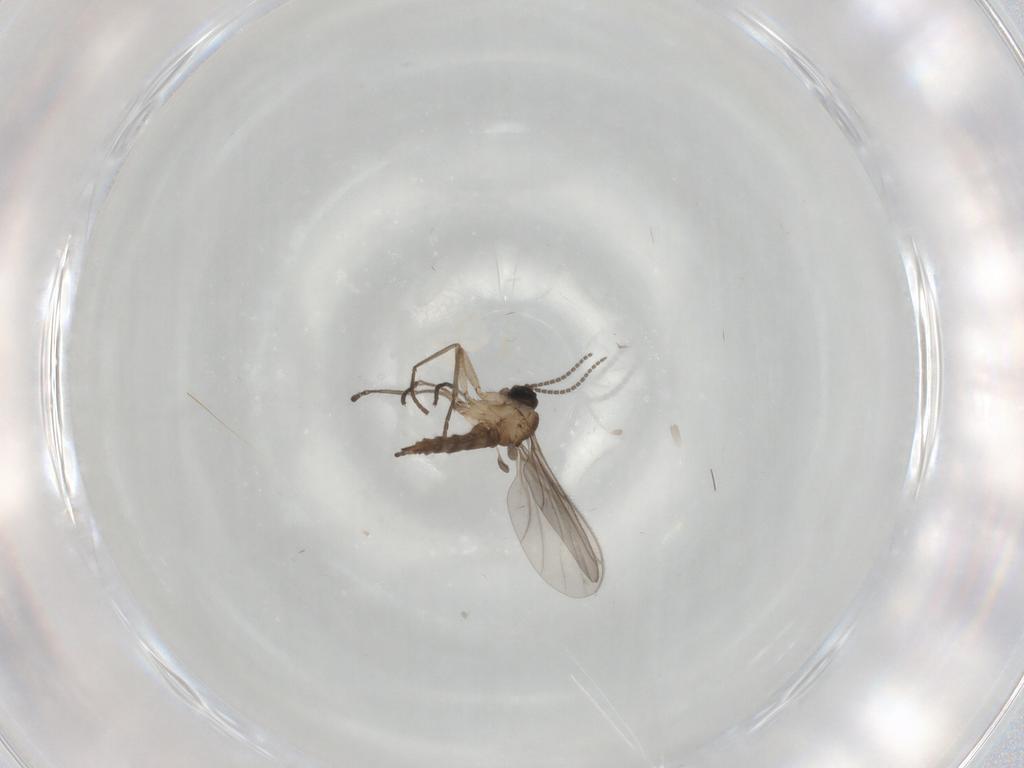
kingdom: Animalia
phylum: Arthropoda
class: Insecta
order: Diptera
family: Sciaridae
